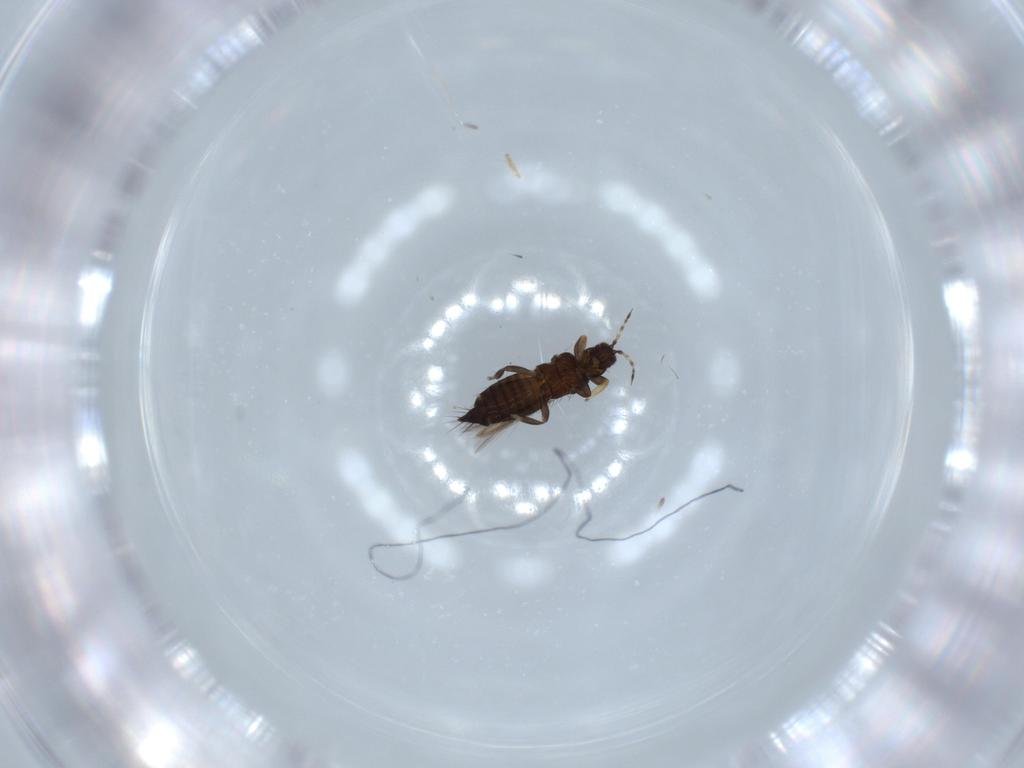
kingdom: Animalia
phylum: Arthropoda
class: Insecta
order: Thysanoptera
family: Thripidae
